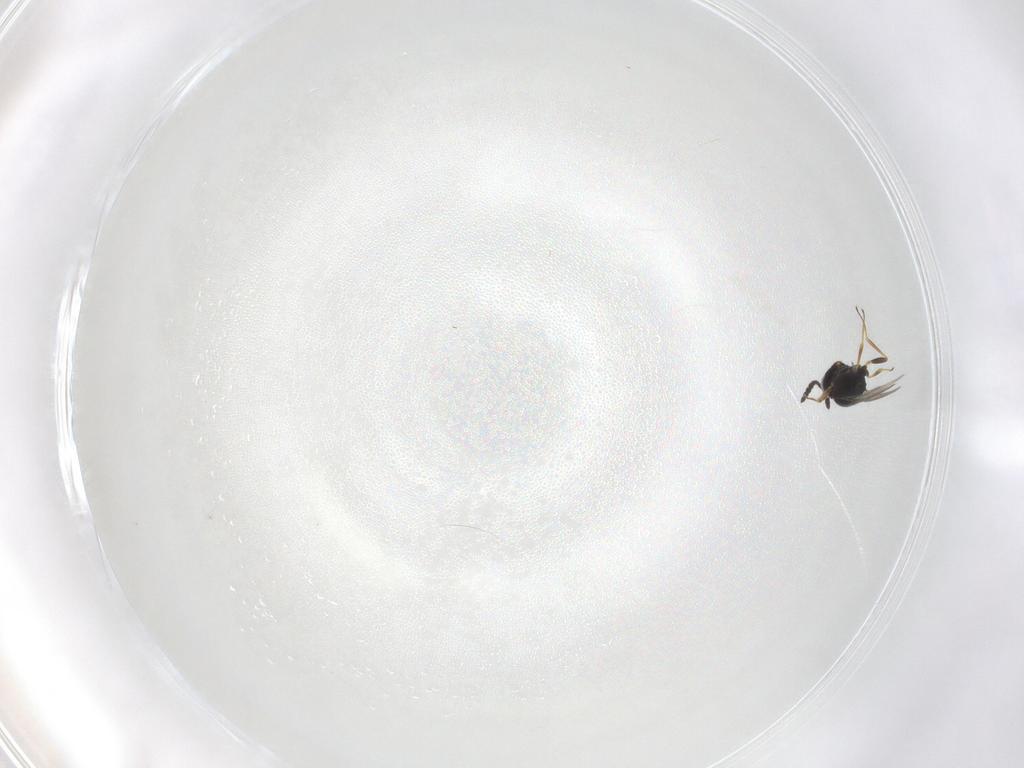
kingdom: Animalia
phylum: Arthropoda
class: Insecta
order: Hymenoptera
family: Scelionidae
